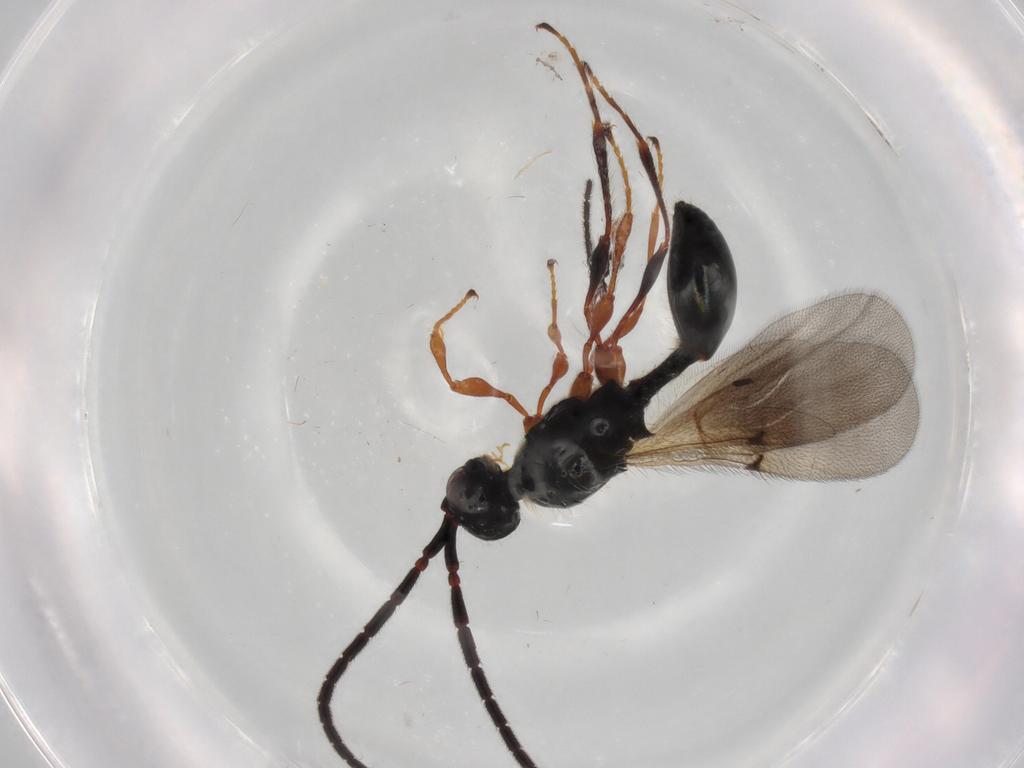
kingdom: Animalia
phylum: Arthropoda
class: Insecta
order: Hymenoptera
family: Diapriidae
